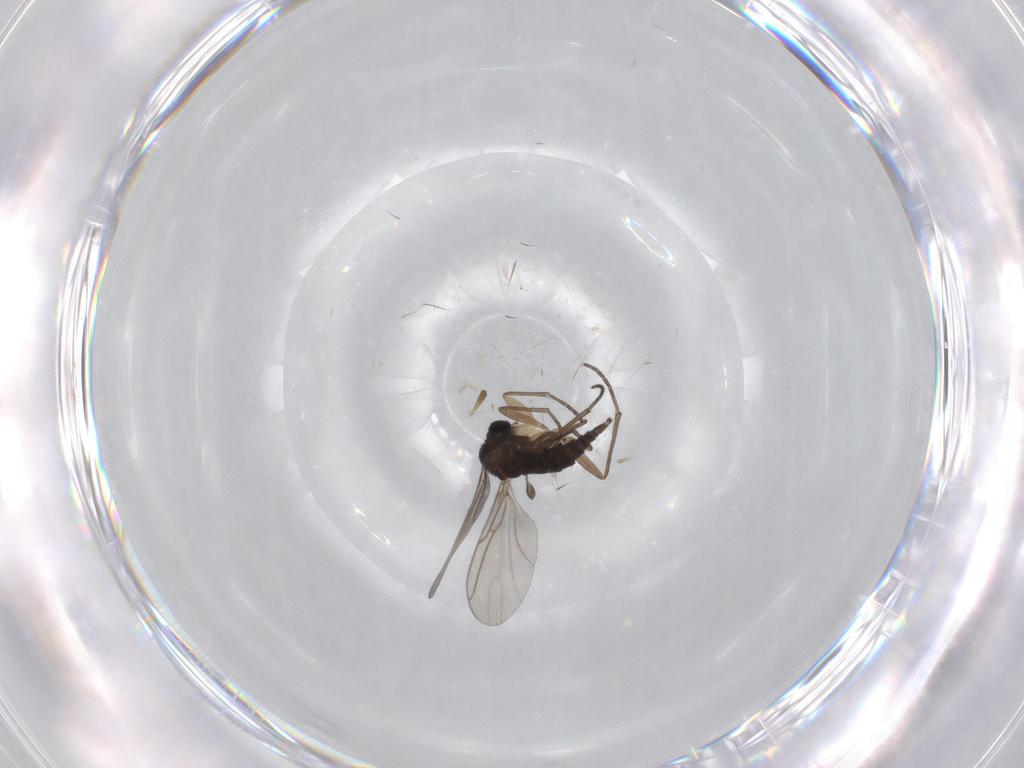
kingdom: Animalia
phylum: Arthropoda
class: Insecta
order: Diptera
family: Sciaridae
